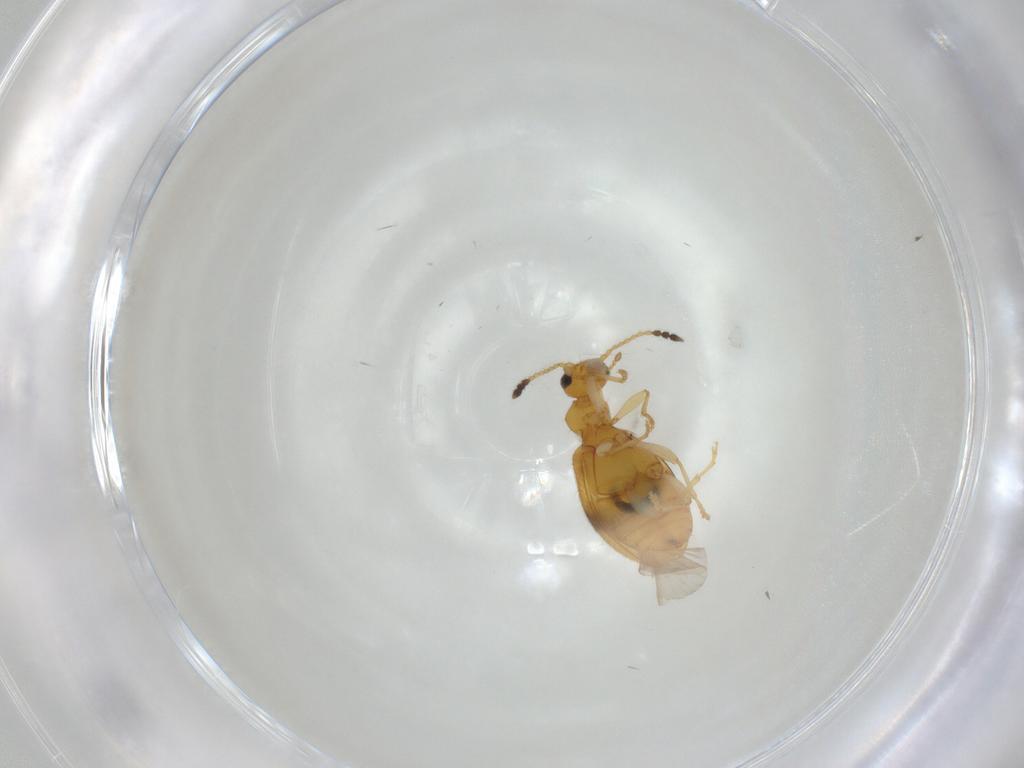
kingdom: Animalia
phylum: Arthropoda
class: Insecta
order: Coleoptera
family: Anthicidae
